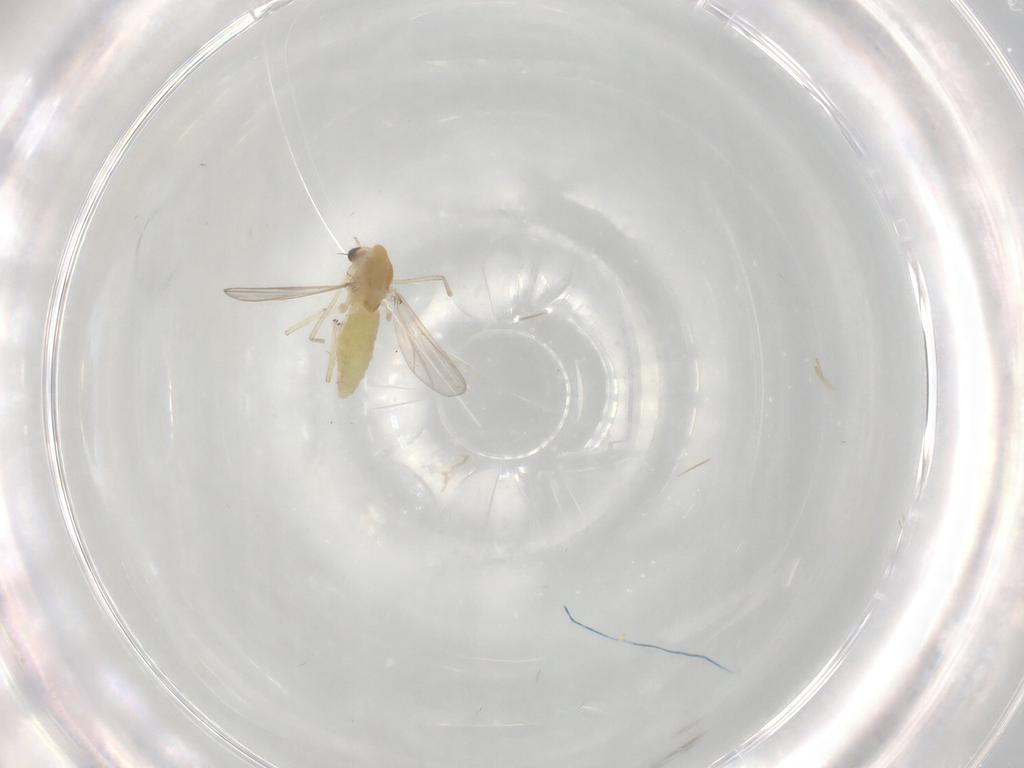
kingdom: Animalia
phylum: Arthropoda
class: Insecta
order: Diptera
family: Chironomidae
